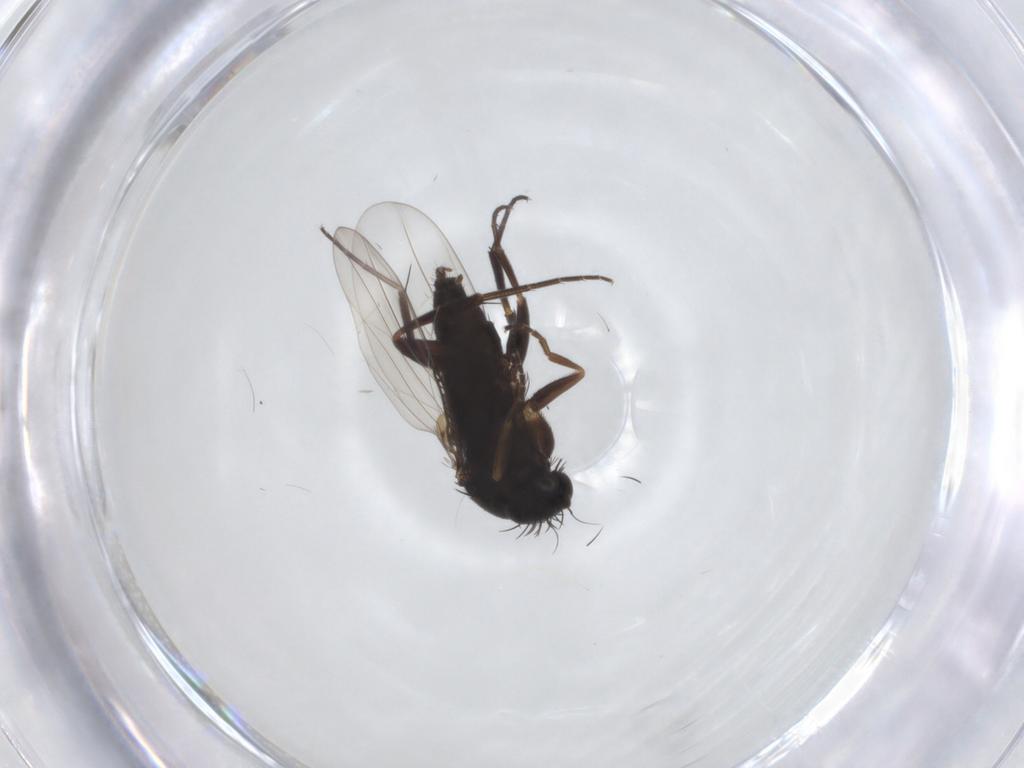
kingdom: Animalia
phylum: Arthropoda
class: Insecta
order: Diptera
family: Phoridae
